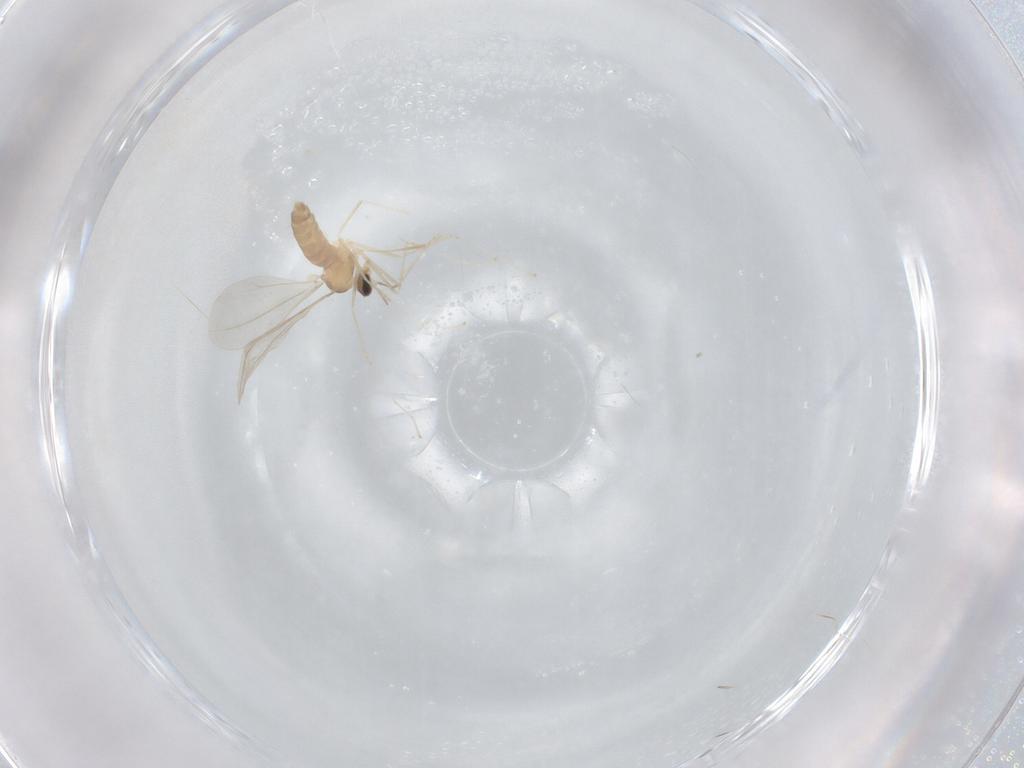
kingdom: Animalia
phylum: Arthropoda
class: Insecta
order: Diptera
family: Cecidomyiidae
